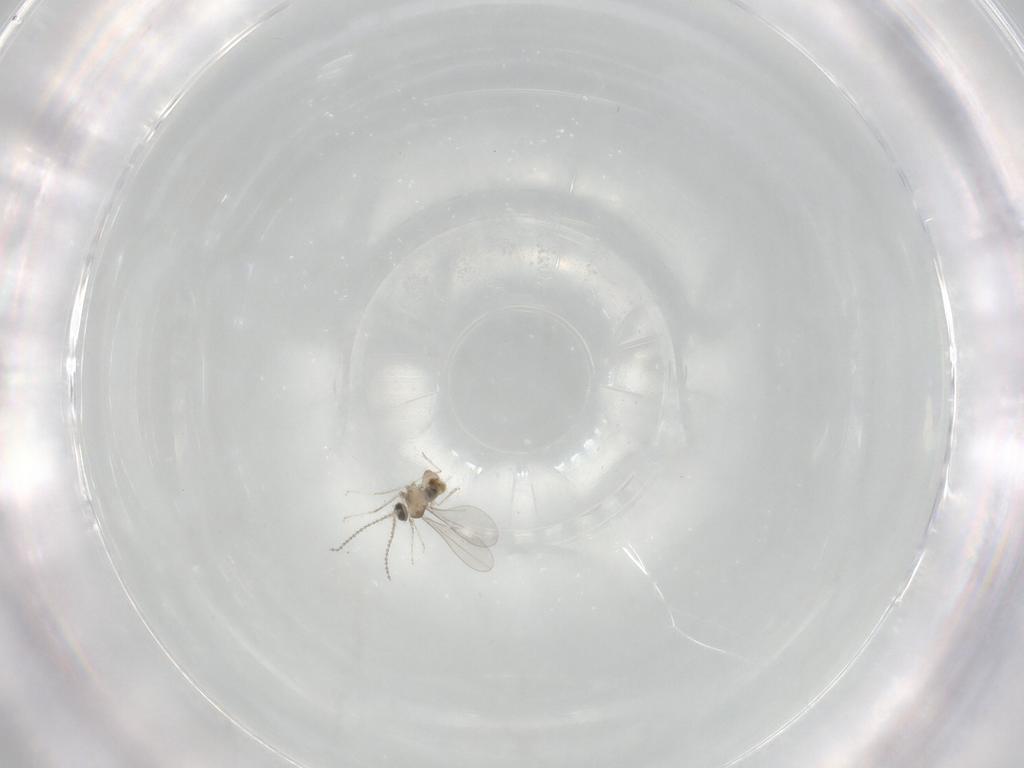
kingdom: Animalia
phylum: Arthropoda
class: Insecta
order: Diptera
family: Cecidomyiidae
